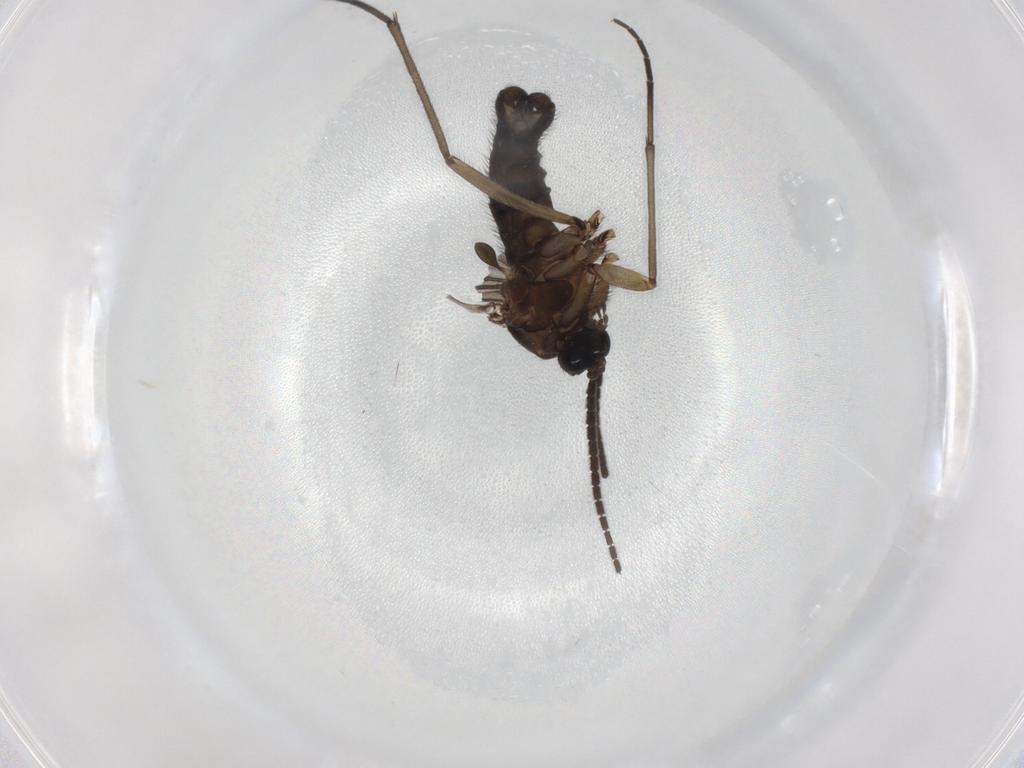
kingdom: Animalia
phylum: Arthropoda
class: Insecta
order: Diptera
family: Sciaridae
